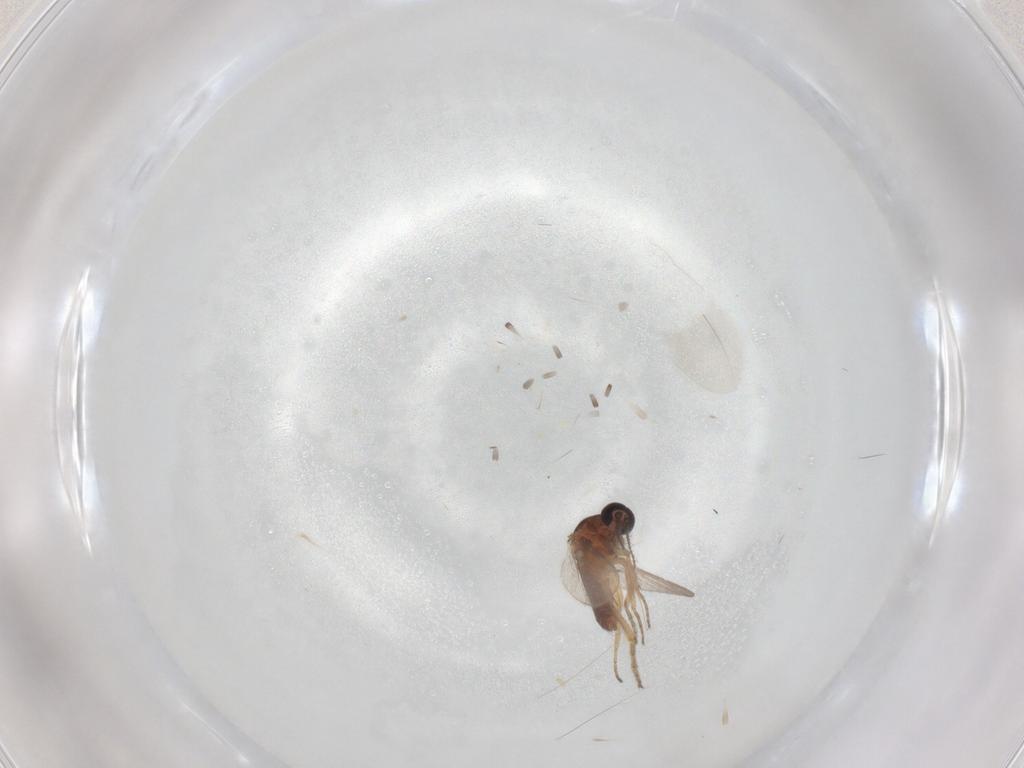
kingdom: Animalia
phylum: Arthropoda
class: Insecta
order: Diptera
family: Ceratopogonidae
